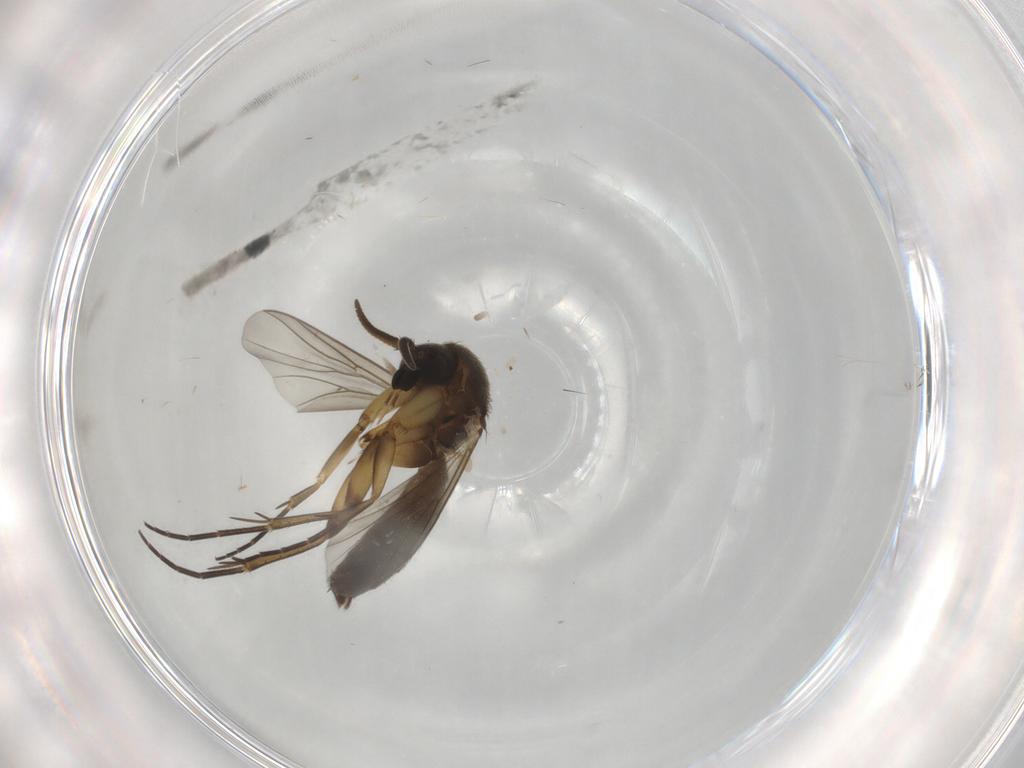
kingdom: Animalia
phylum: Arthropoda
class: Insecta
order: Diptera
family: Mycetophilidae
